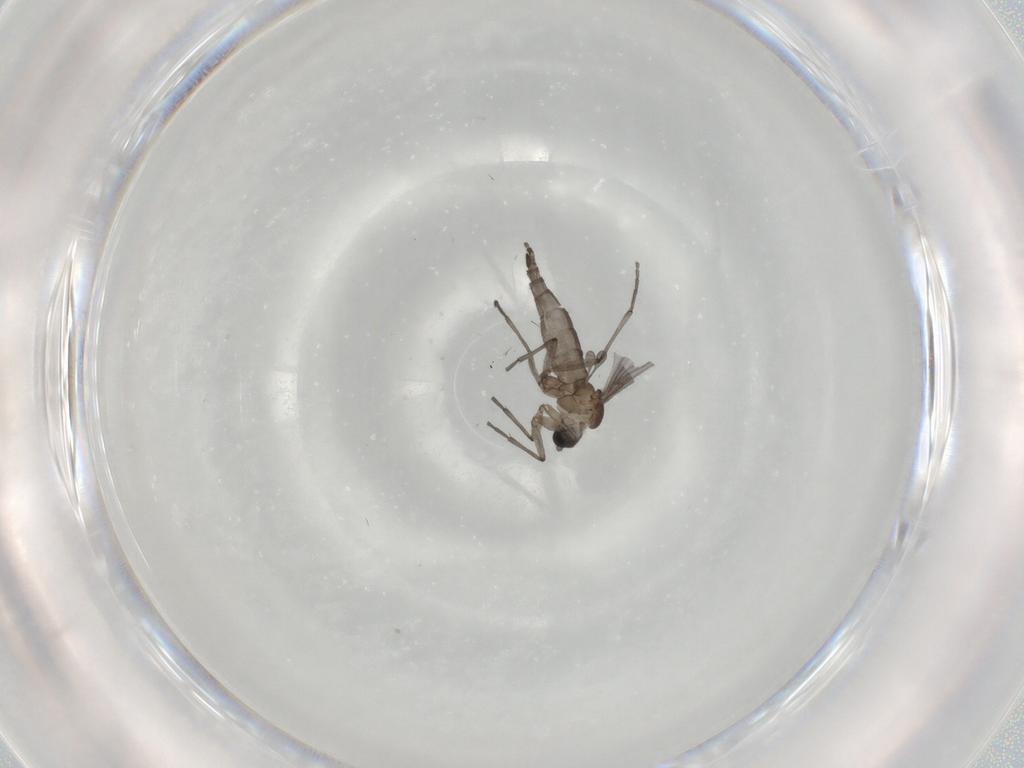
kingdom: Animalia
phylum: Arthropoda
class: Insecta
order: Diptera
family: Sciaridae
